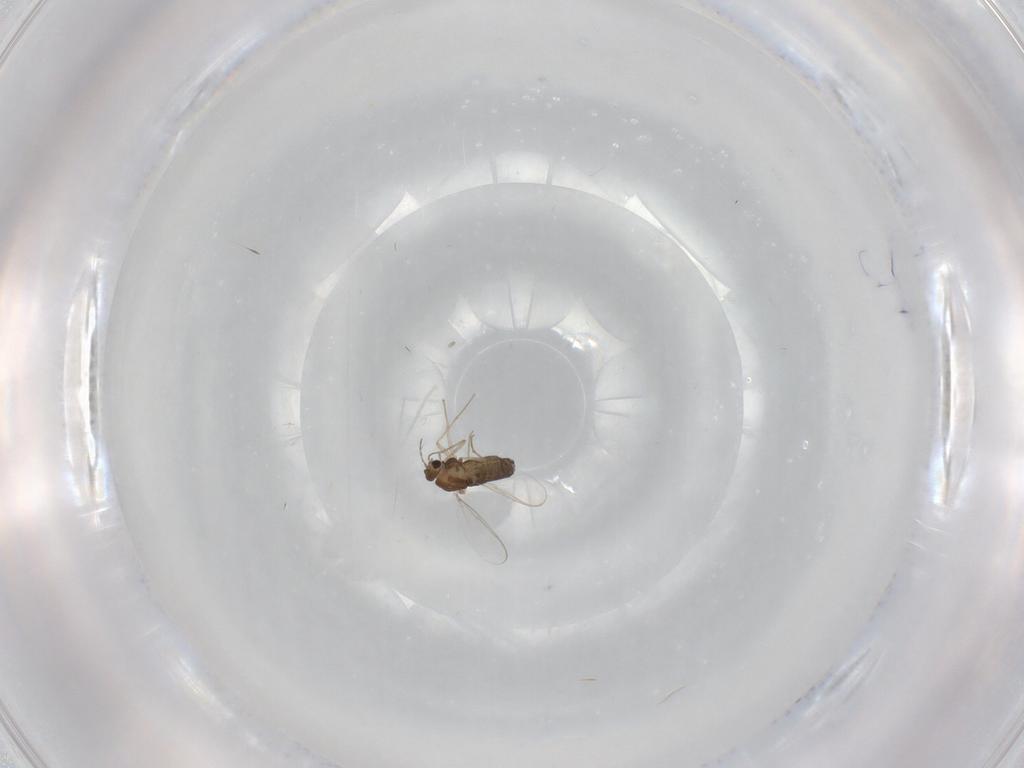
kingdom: Animalia
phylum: Arthropoda
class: Insecta
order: Diptera
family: Chironomidae
